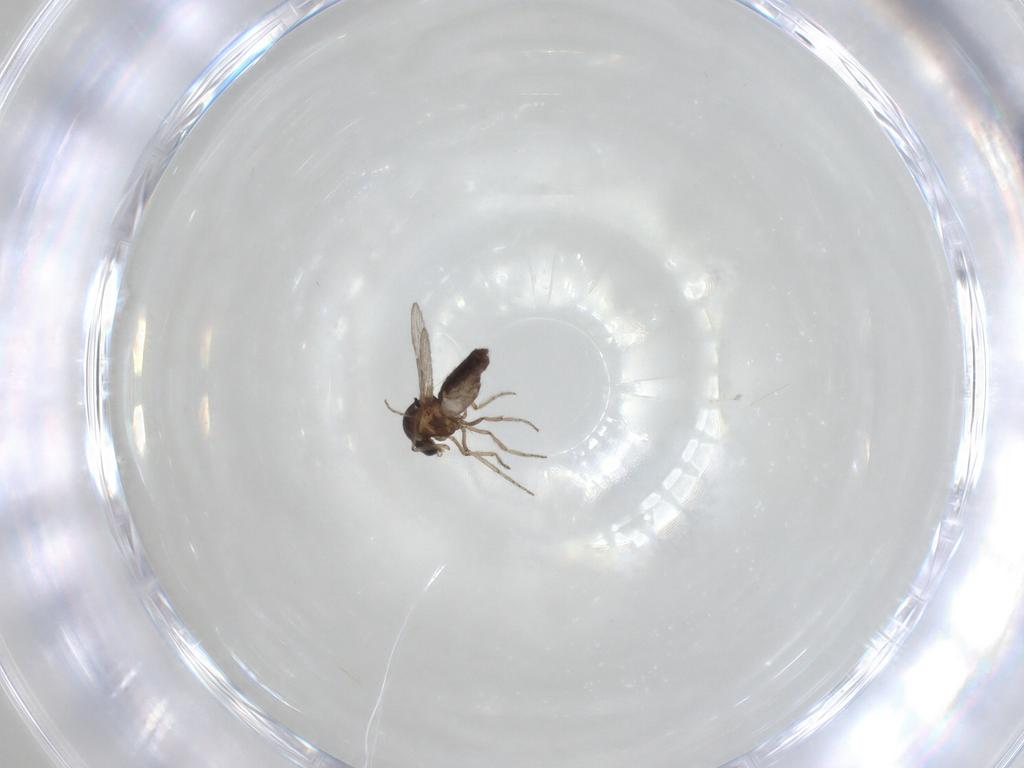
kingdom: Animalia
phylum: Arthropoda
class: Insecta
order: Diptera
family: Ceratopogonidae
